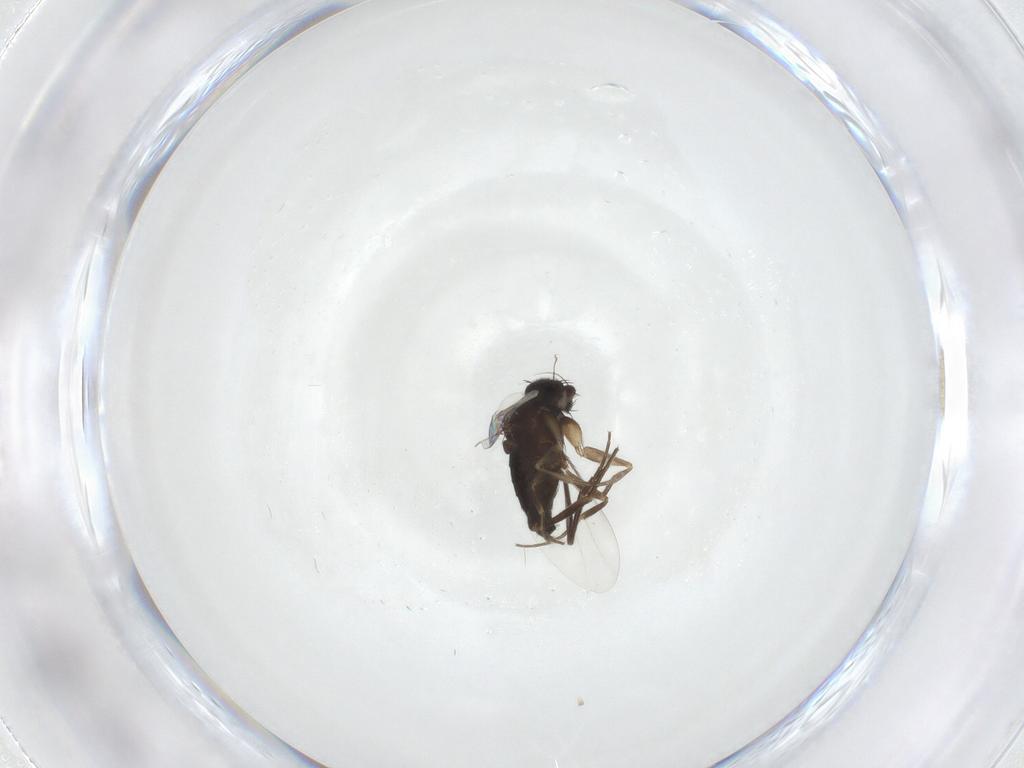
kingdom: Animalia
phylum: Arthropoda
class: Insecta
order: Diptera
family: Phoridae
